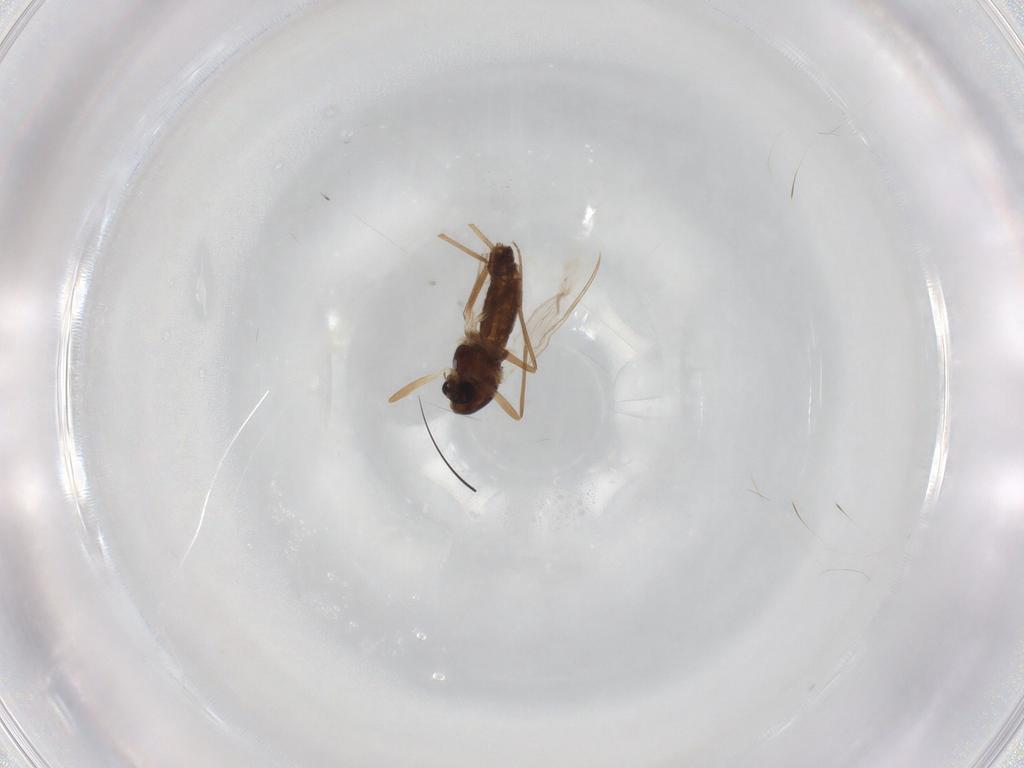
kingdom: Animalia
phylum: Arthropoda
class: Insecta
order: Diptera
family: Chironomidae
